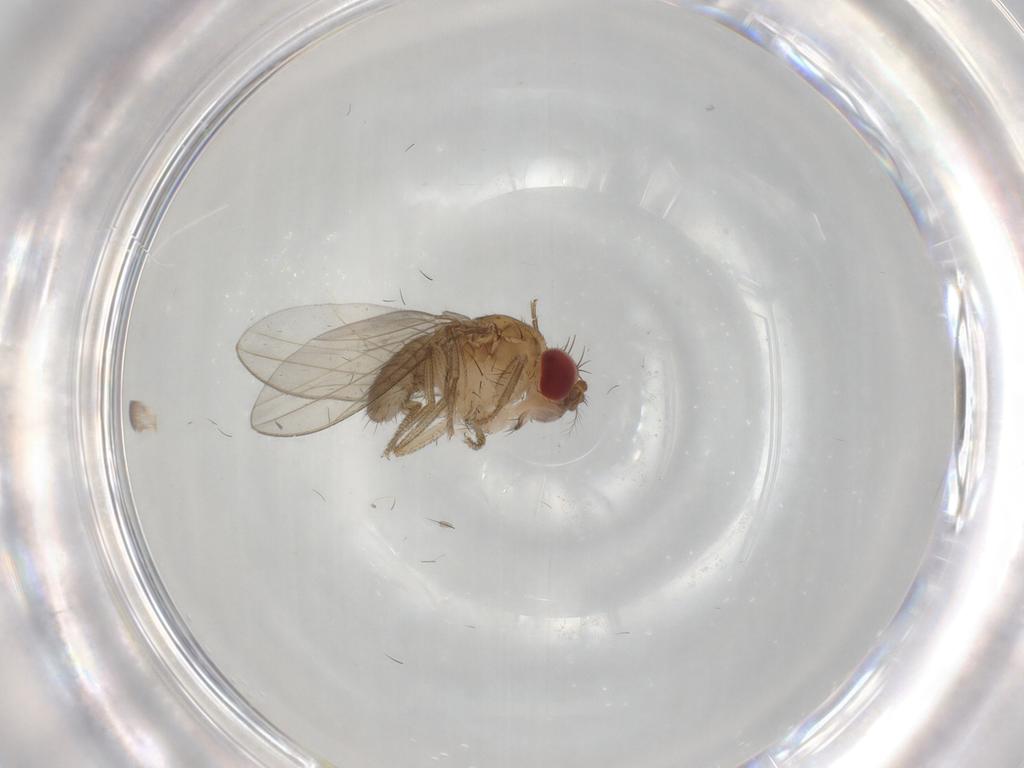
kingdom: Animalia
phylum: Arthropoda
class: Insecta
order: Diptera
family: Drosophilidae
